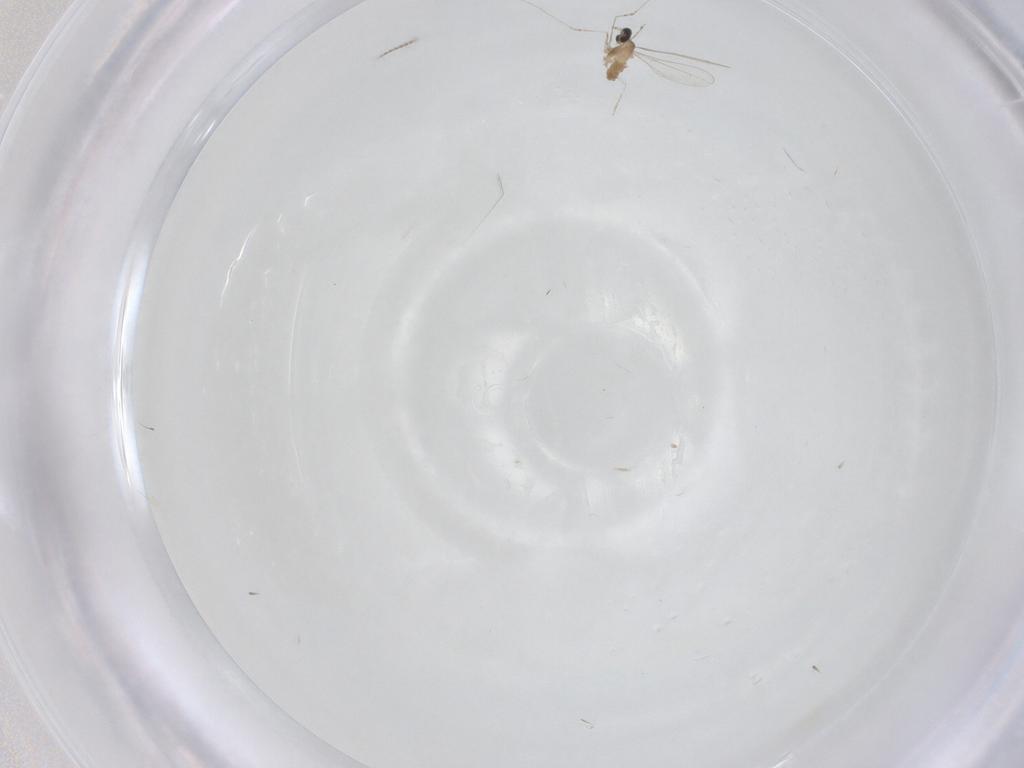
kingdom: Animalia
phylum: Arthropoda
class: Insecta
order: Diptera
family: Cecidomyiidae
